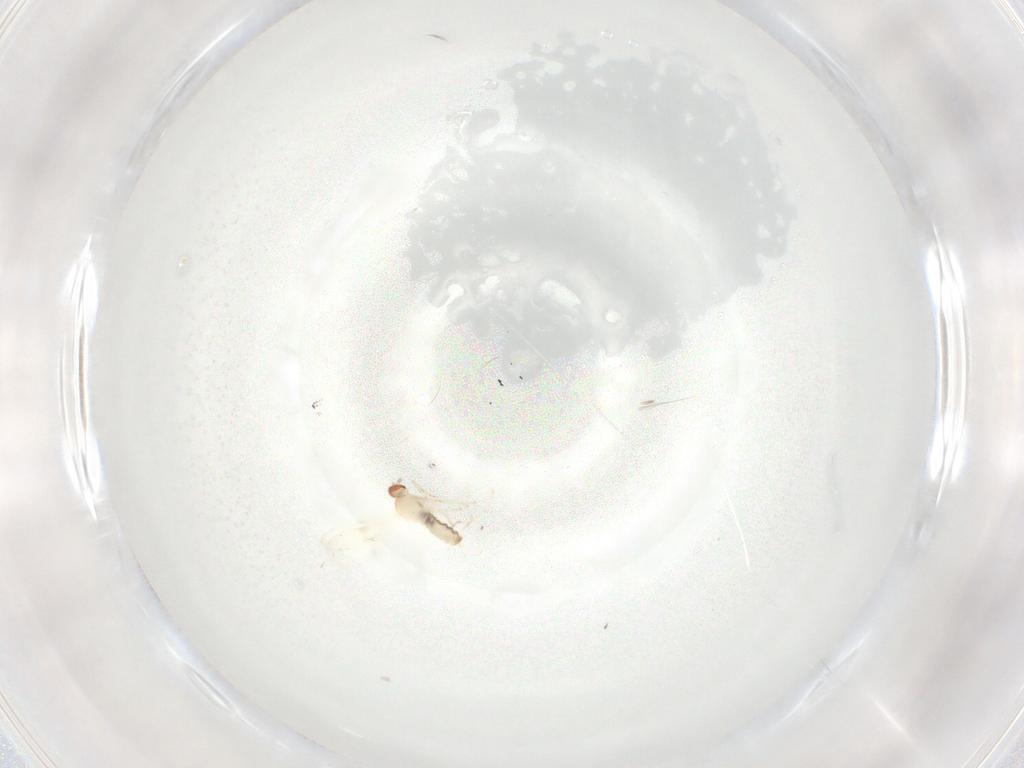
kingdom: Animalia
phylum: Arthropoda
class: Insecta
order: Diptera
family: Cecidomyiidae
